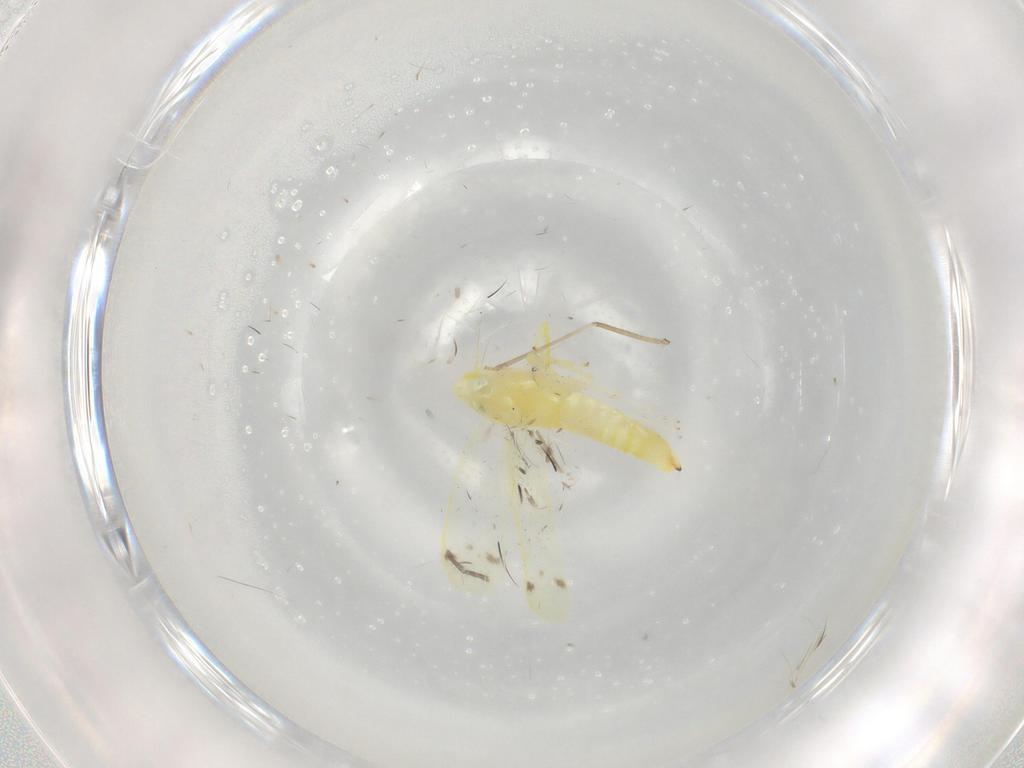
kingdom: Animalia
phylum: Arthropoda
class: Insecta
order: Hemiptera
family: Cicadellidae
